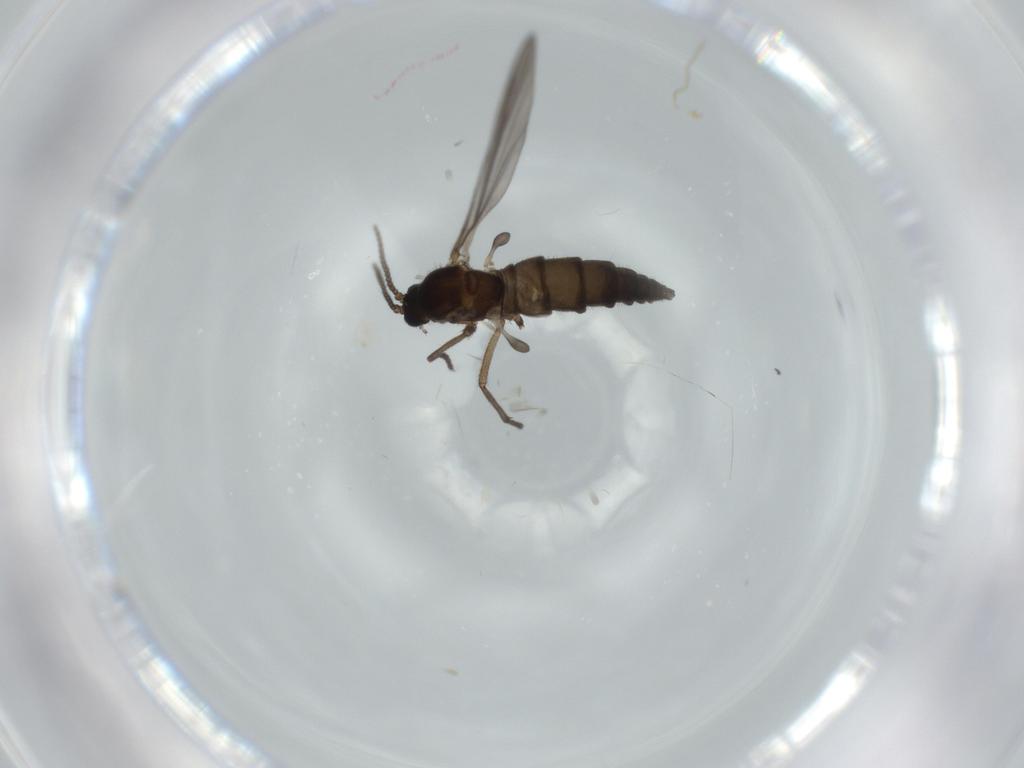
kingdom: Animalia
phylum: Arthropoda
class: Insecta
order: Diptera
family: Sciaridae
